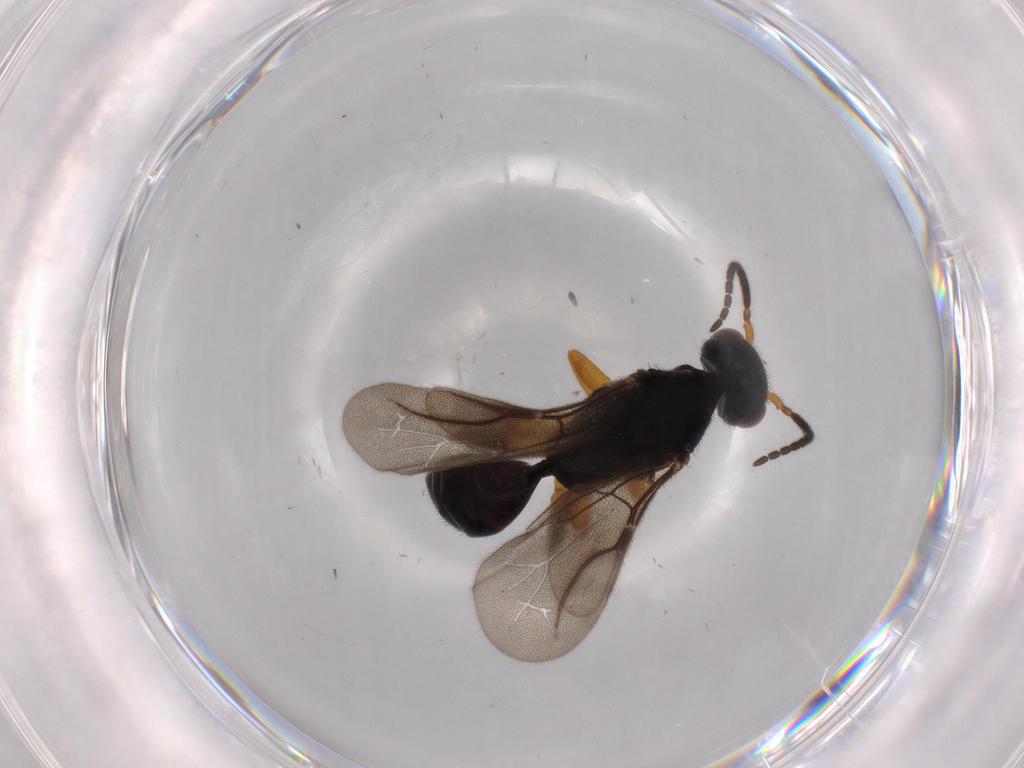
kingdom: Animalia
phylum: Arthropoda
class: Insecta
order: Hymenoptera
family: Bethylidae
